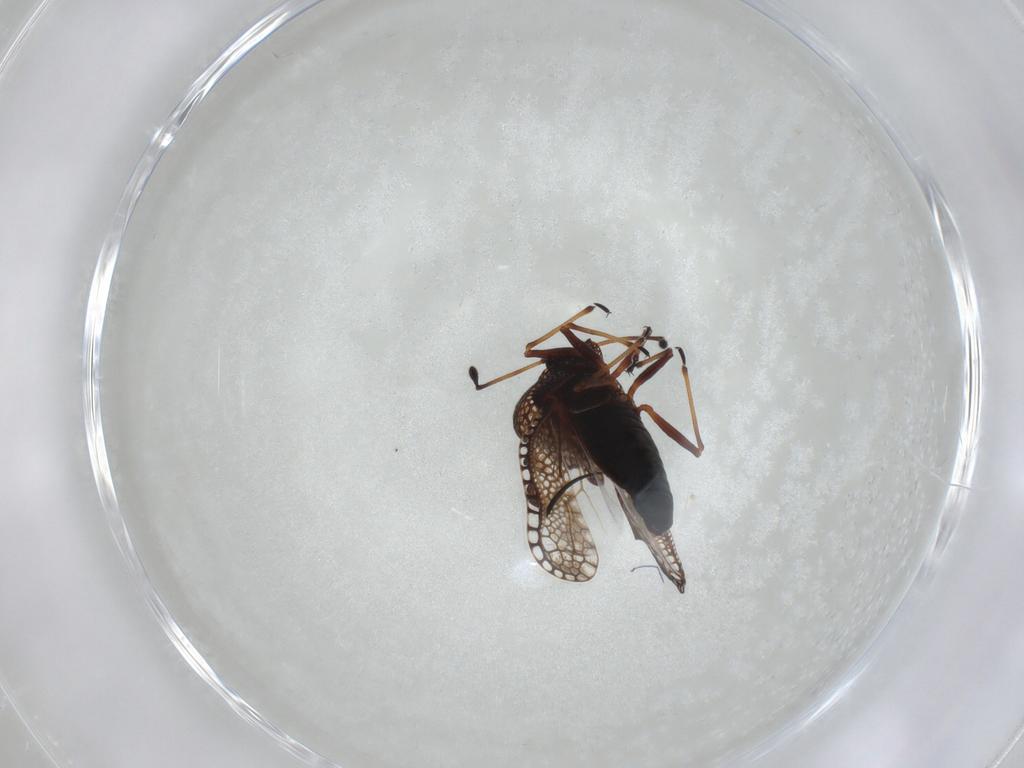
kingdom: Animalia
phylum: Arthropoda
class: Insecta
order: Hemiptera
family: Tingidae
